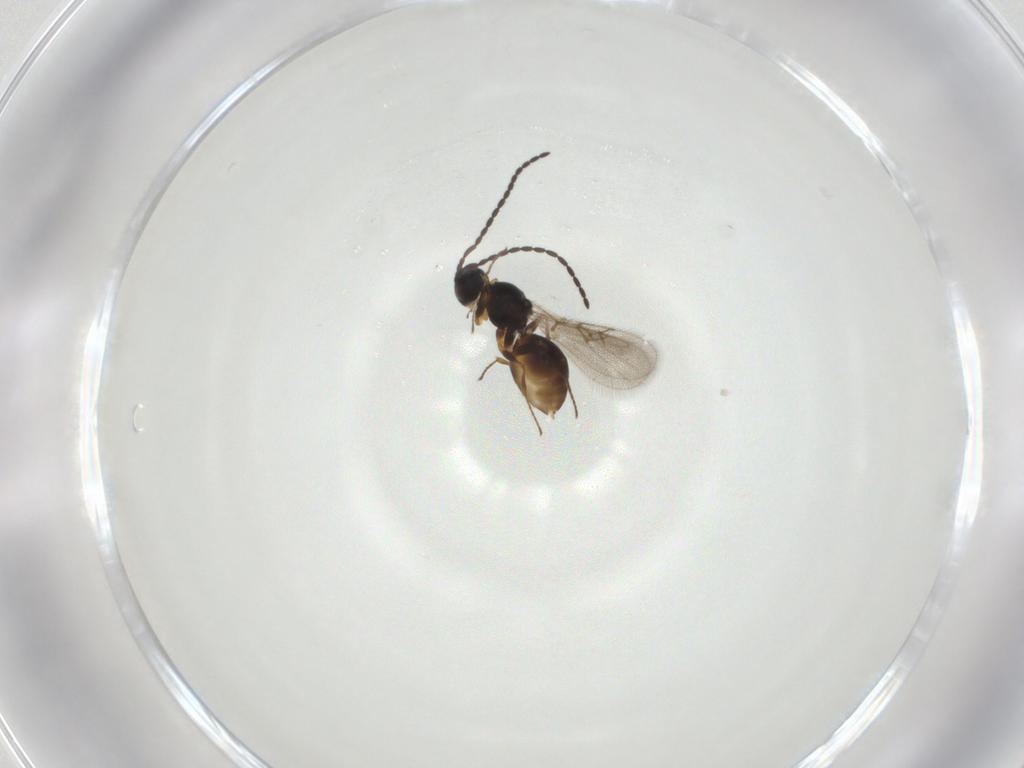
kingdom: Animalia
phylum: Arthropoda
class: Insecta
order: Hymenoptera
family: Figitidae
